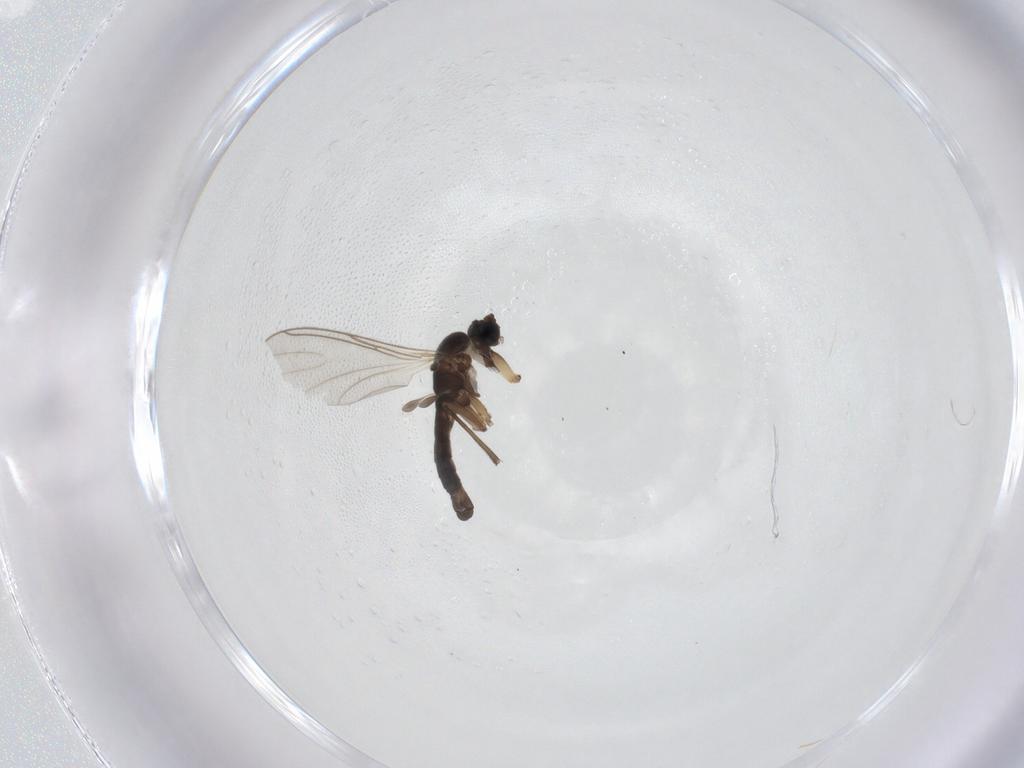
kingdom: Animalia
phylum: Arthropoda
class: Insecta
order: Diptera
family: Sciaridae
